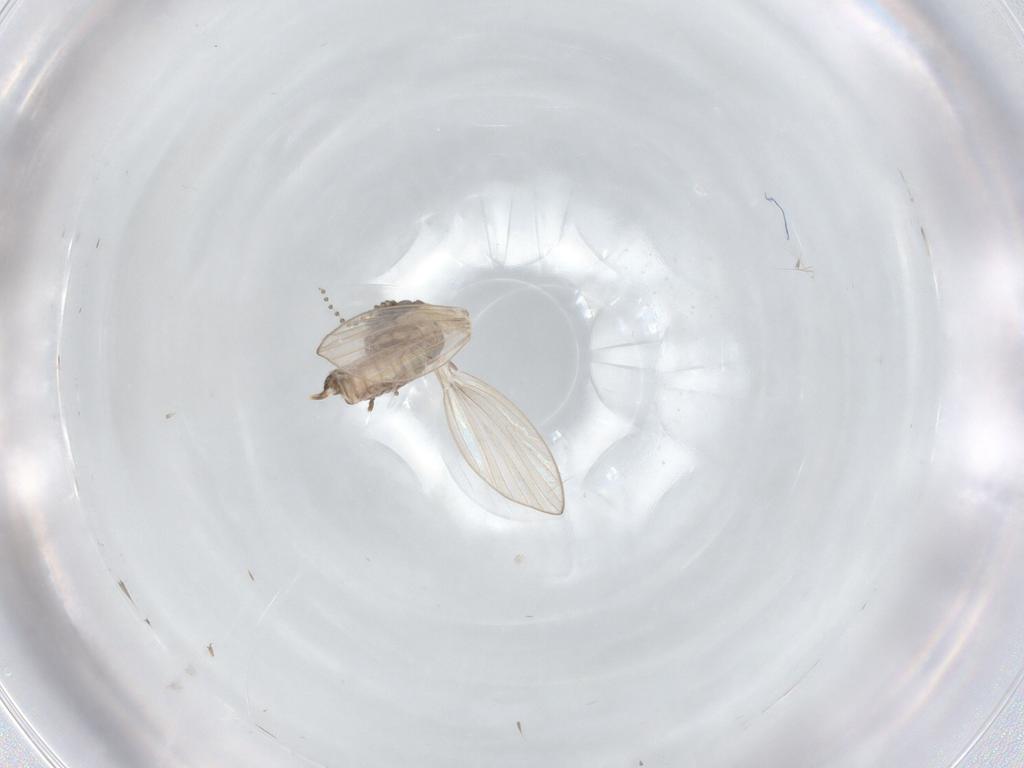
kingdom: Animalia
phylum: Arthropoda
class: Insecta
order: Diptera
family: Psychodidae
